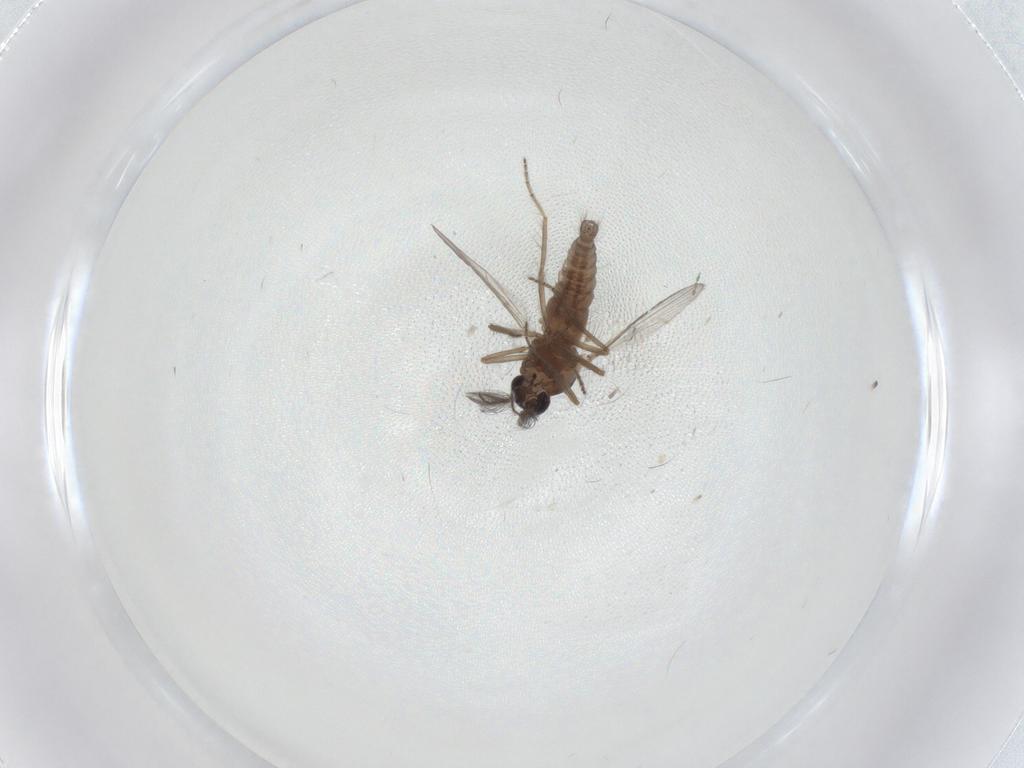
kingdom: Animalia
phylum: Arthropoda
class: Insecta
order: Diptera
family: Ceratopogonidae
